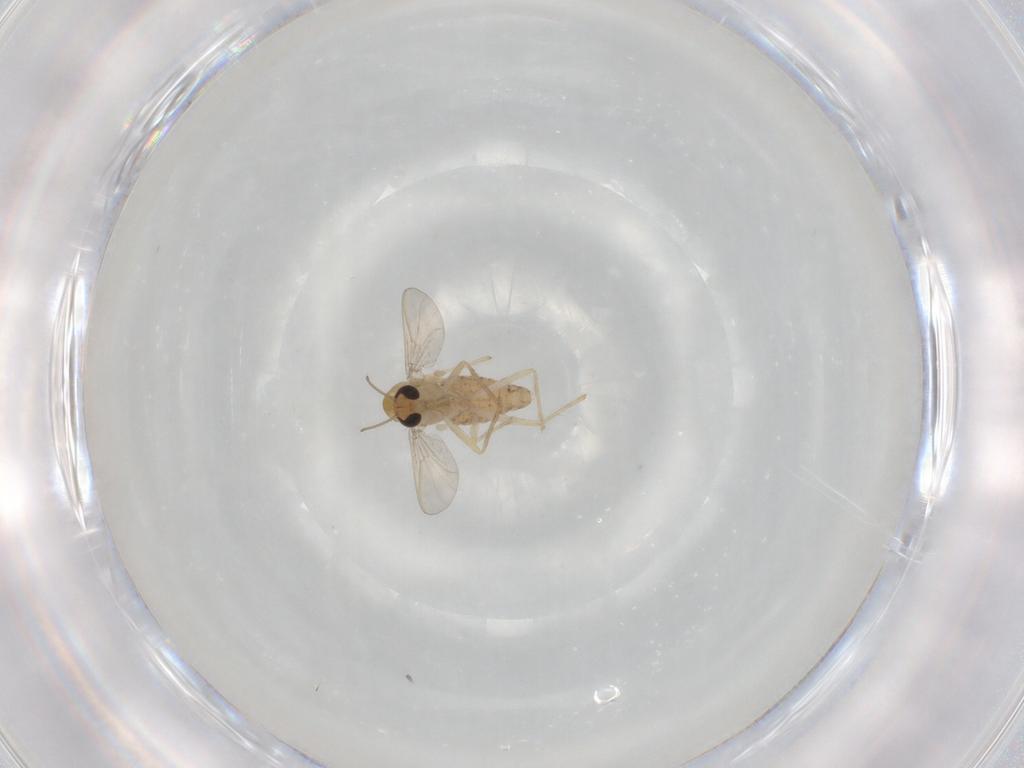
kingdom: Animalia
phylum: Arthropoda
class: Insecta
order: Diptera
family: Chironomidae
